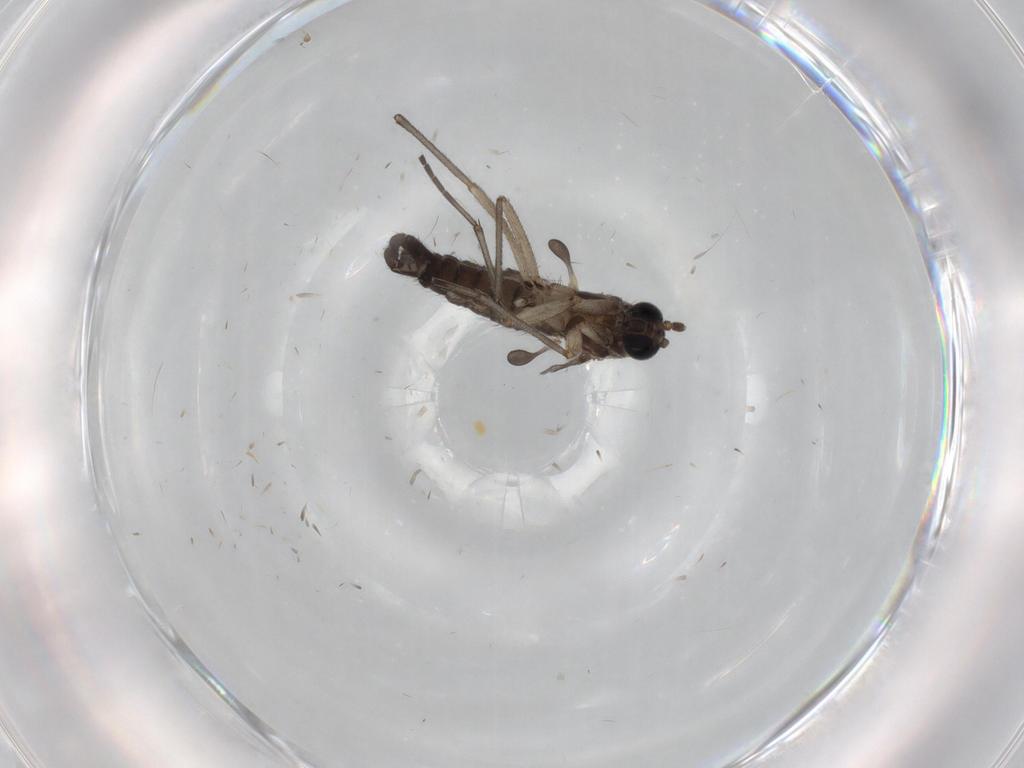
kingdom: Animalia
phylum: Arthropoda
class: Insecta
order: Diptera
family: Sciaridae
